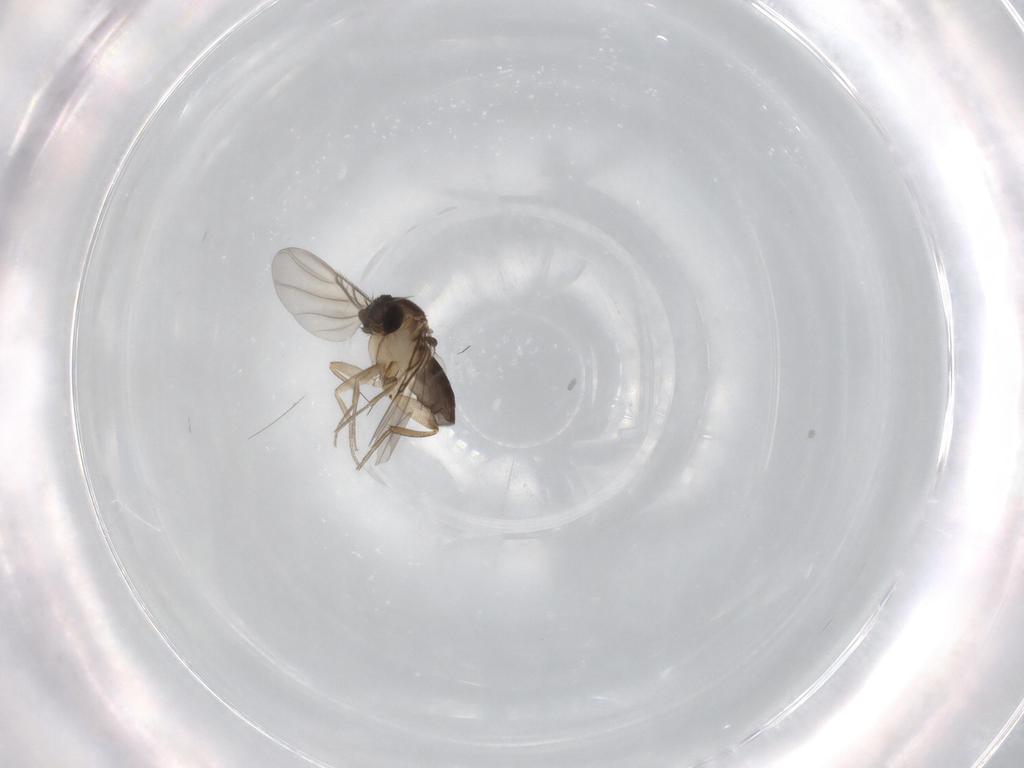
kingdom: Animalia
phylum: Arthropoda
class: Insecta
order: Diptera
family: Phoridae
